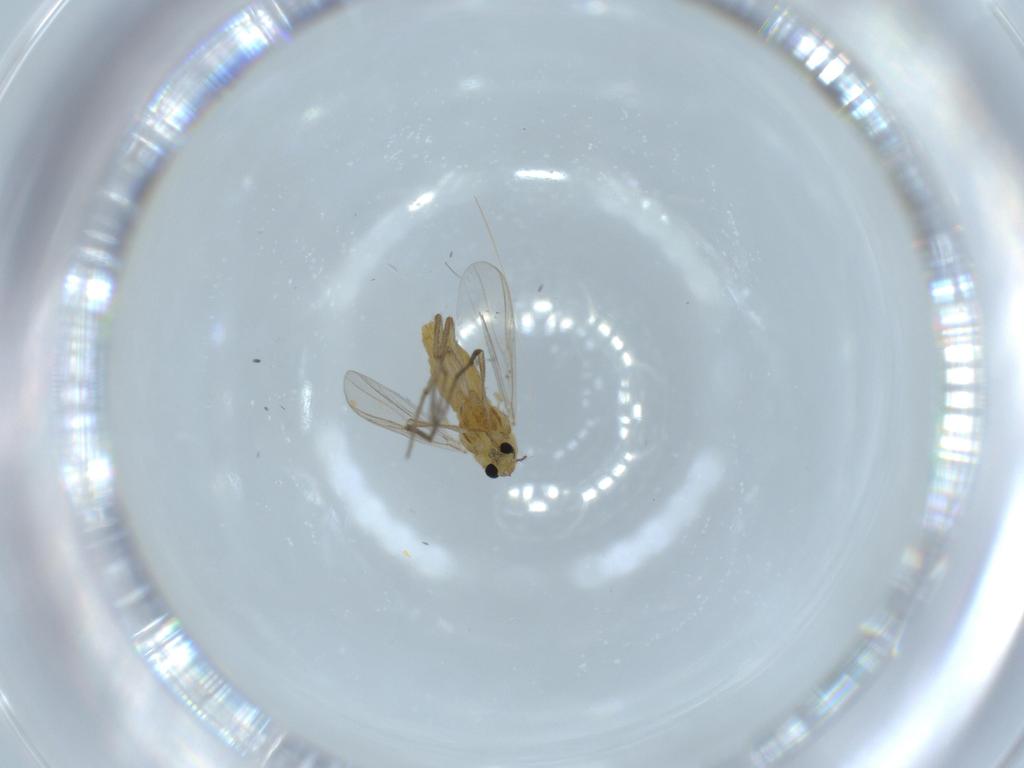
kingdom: Animalia
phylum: Arthropoda
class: Insecta
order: Diptera
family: Chironomidae
